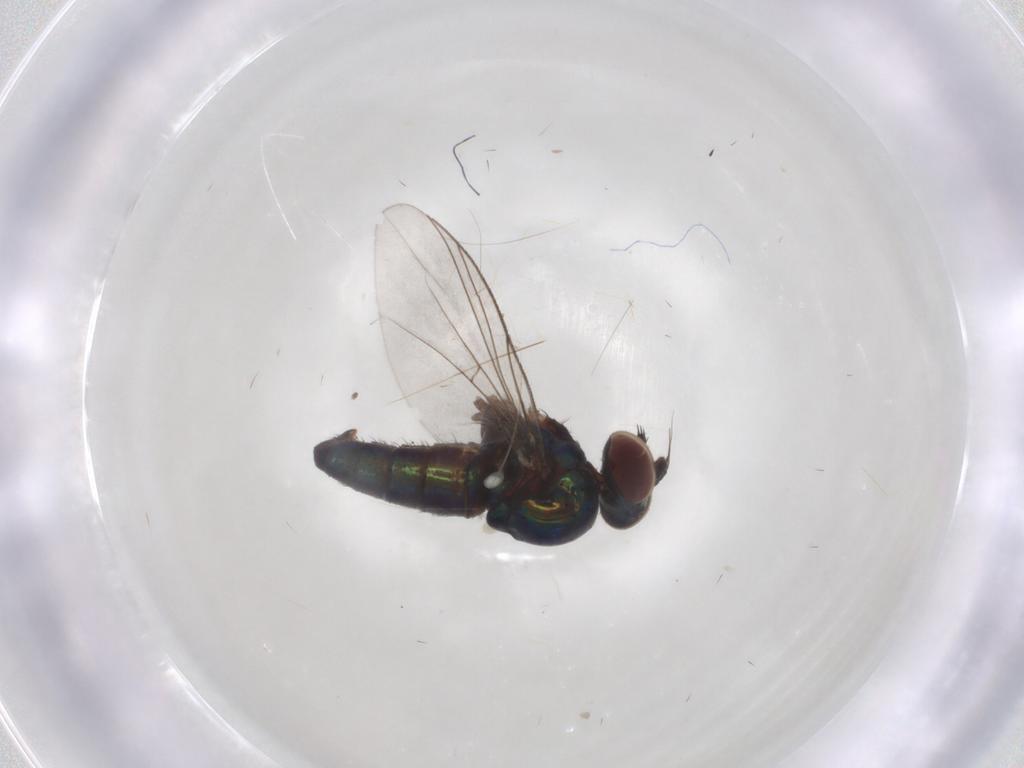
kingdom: Animalia
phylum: Arthropoda
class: Insecta
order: Diptera
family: Dolichopodidae
